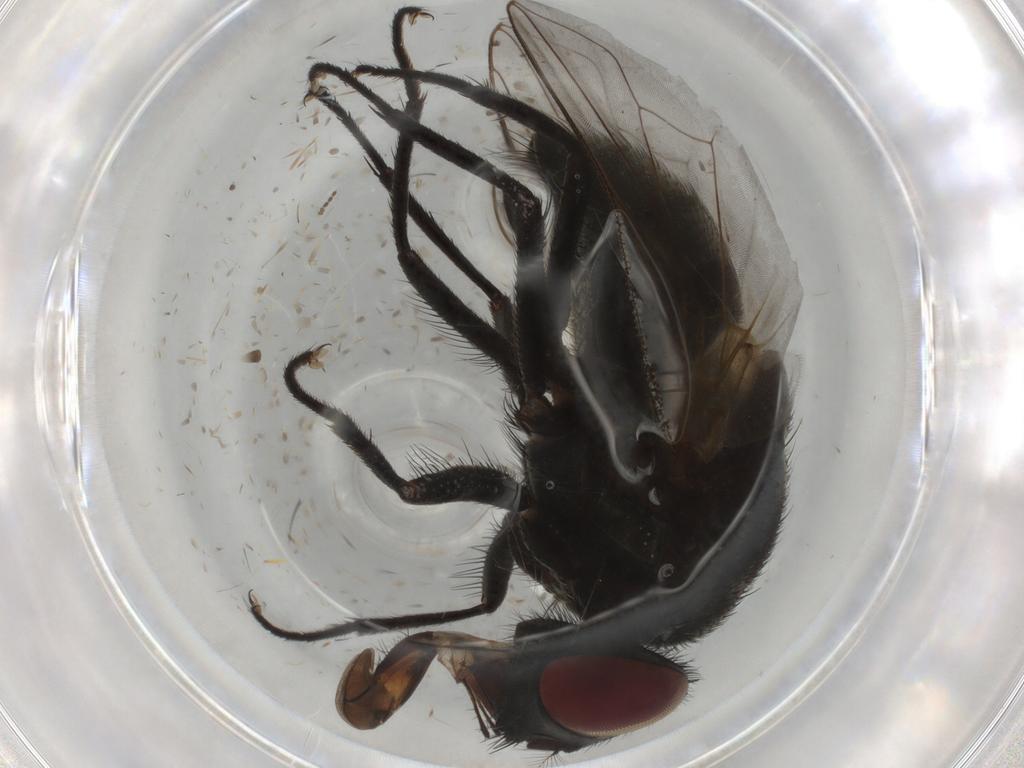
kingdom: Animalia
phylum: Arthropoda
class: Insecta
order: Diptera
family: Muscidae
